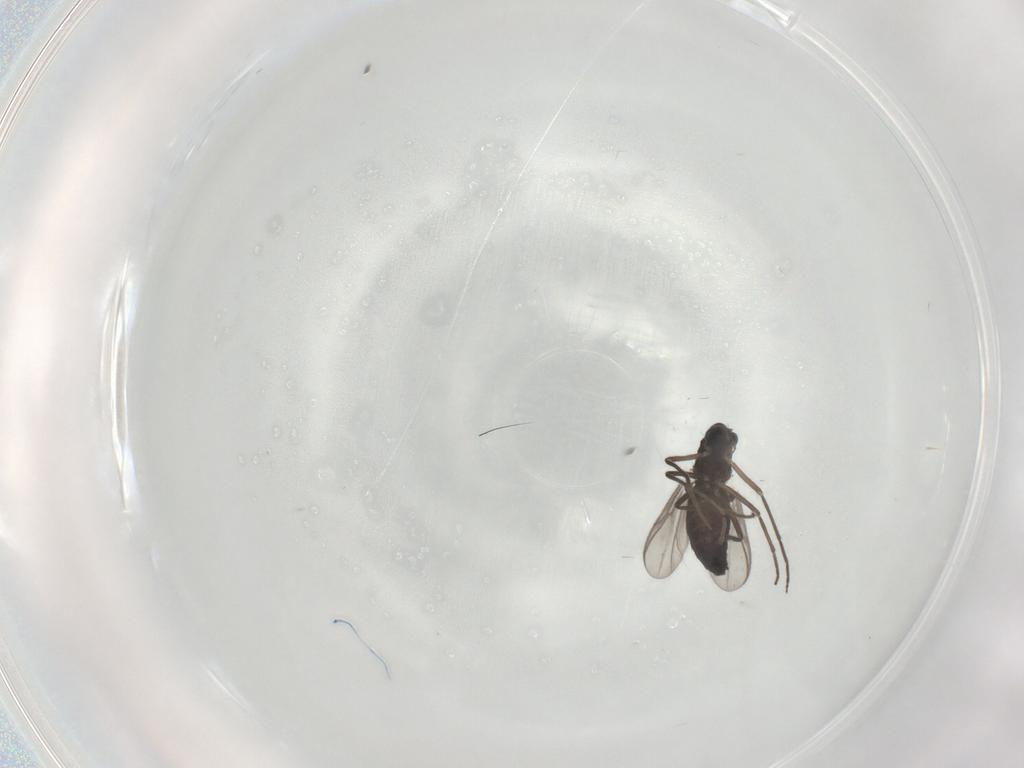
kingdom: Animalia
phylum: Arthropoda
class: Insecta
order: Diptera
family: Chironomidae
